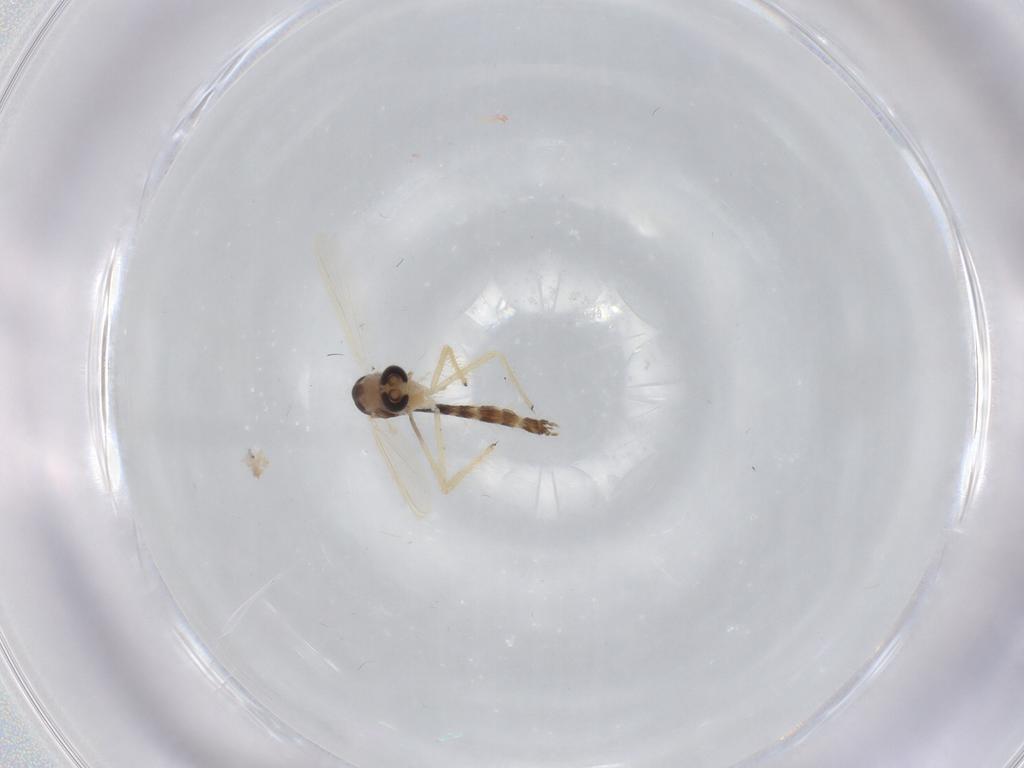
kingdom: Animalia
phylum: Arthropoda
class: Insecta
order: Diptera
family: Chironomidae
